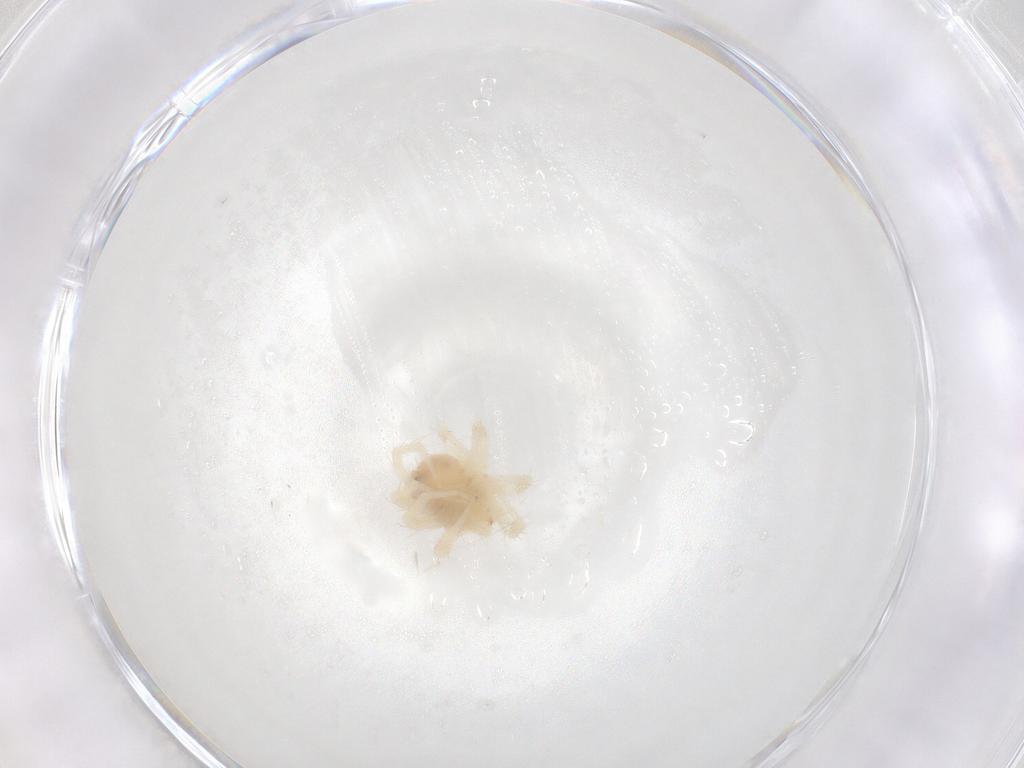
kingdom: Animalia
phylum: Arthropoda
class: Arachnida
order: Trombidiformes
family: Anystidae
